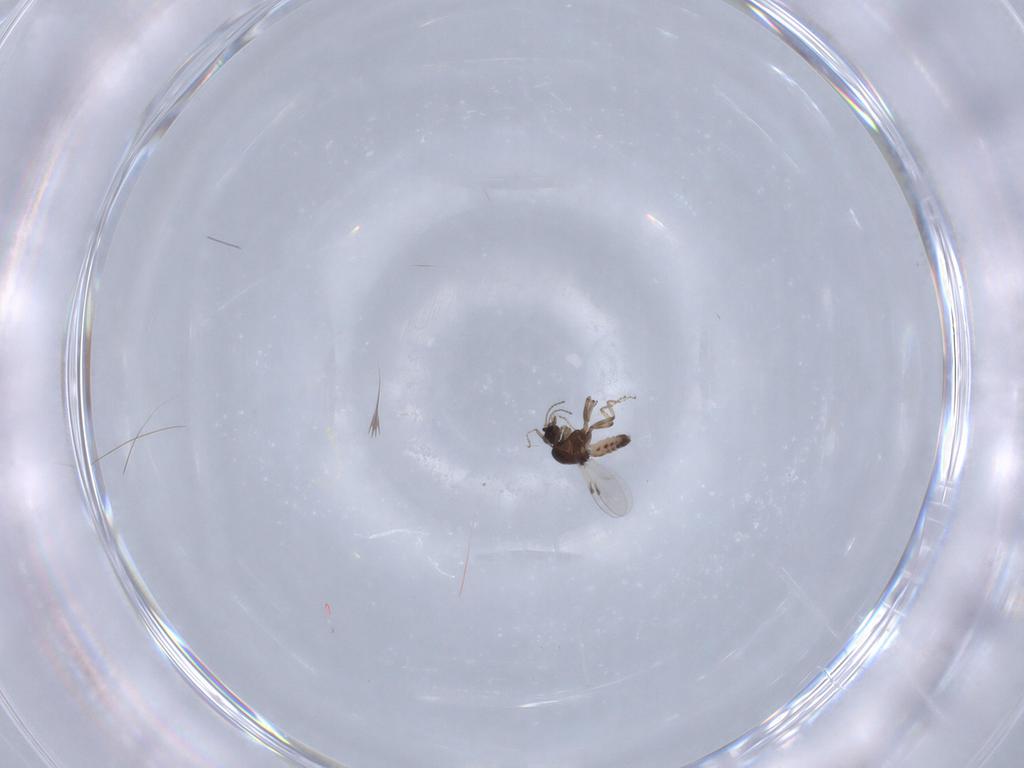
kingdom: Animalia
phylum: Arthropoda
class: Insecta
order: Diptera
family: Ceratopogonidae
